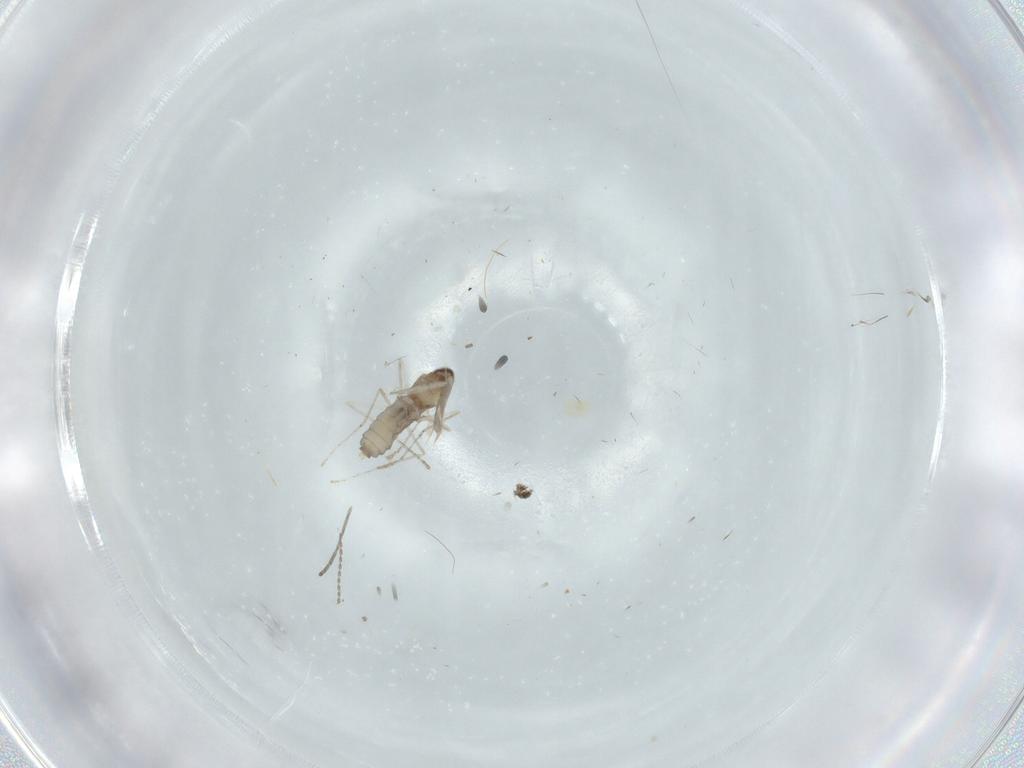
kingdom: Animalia
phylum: Arthropoda
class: Insecta
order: Diptera
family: Cecidomyiidae
